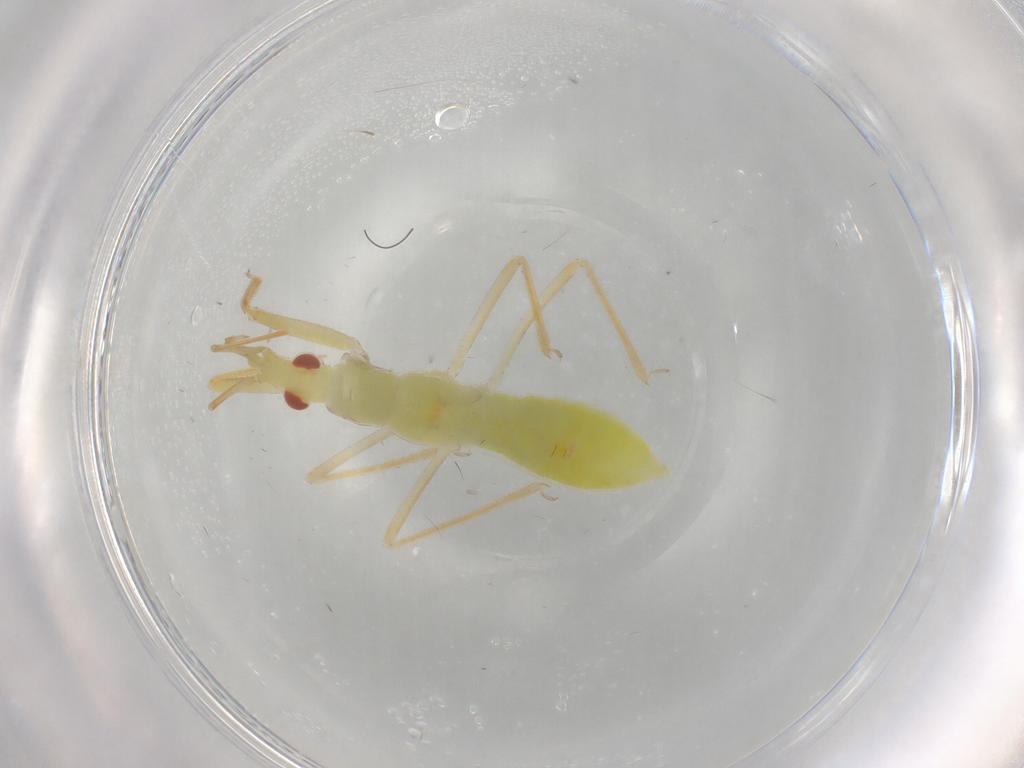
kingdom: Animalia
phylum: Arthropoda
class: Insecta
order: Hemiptera
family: Nabidae
